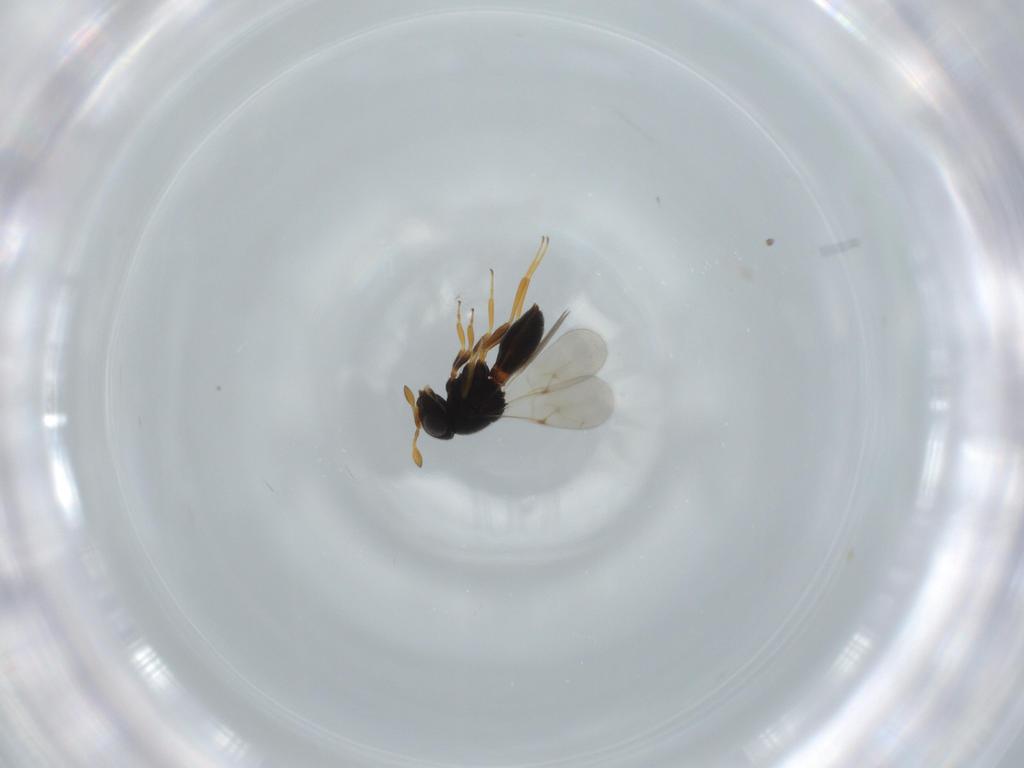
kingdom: Animalia
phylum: Arthropoda
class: Insecta
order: Hymenoptera
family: Scelionidae
